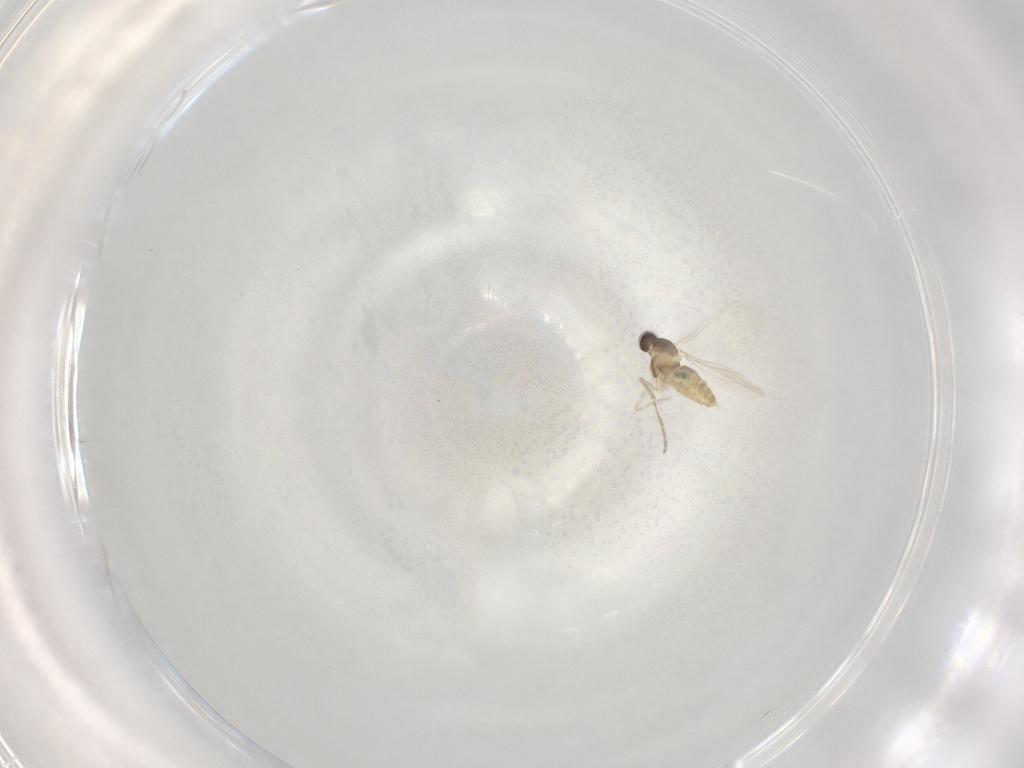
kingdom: Animalia
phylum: Arthropoda
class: Insecta
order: Diptera
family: Cecidomyiidae
